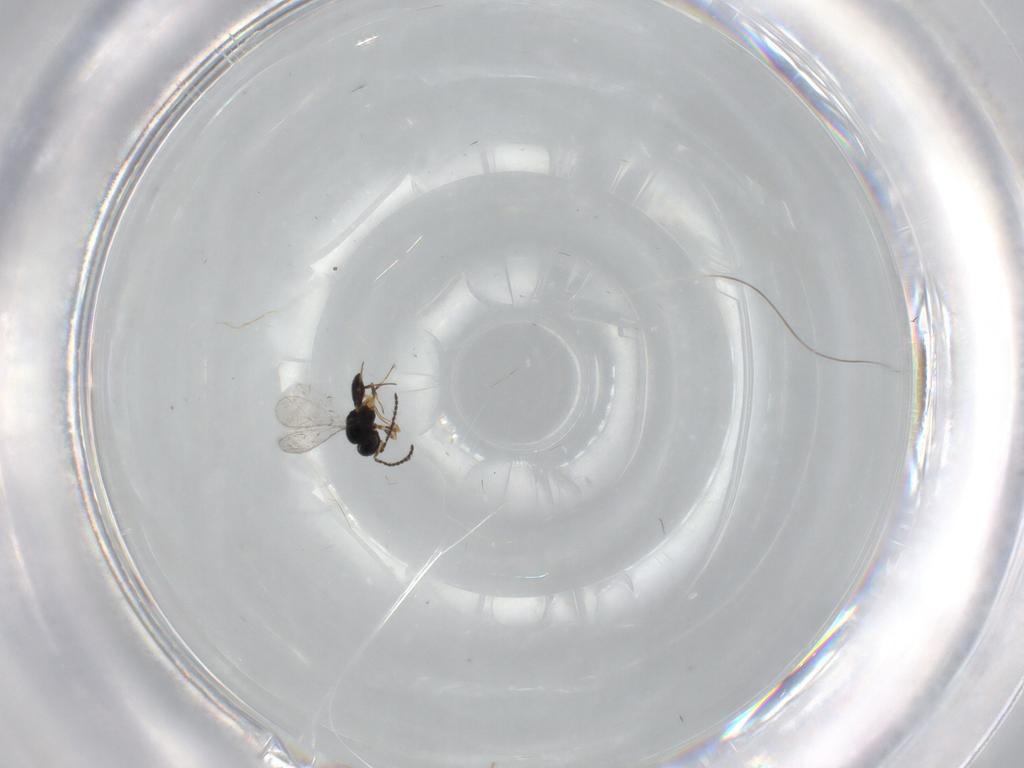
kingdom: Animalia
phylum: Arthropoda
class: Insecta
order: Hymenoptera
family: Scelionidae
